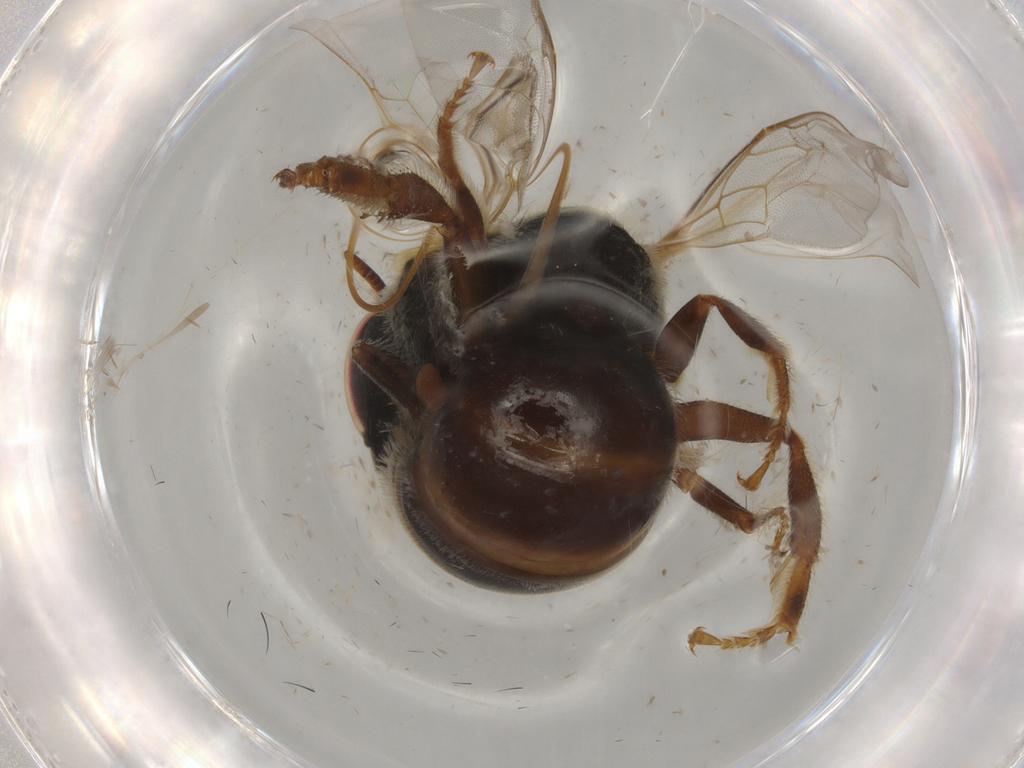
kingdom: Animalia
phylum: Arthropoda
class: Insecta
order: Hymenoptera
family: Halictidae
